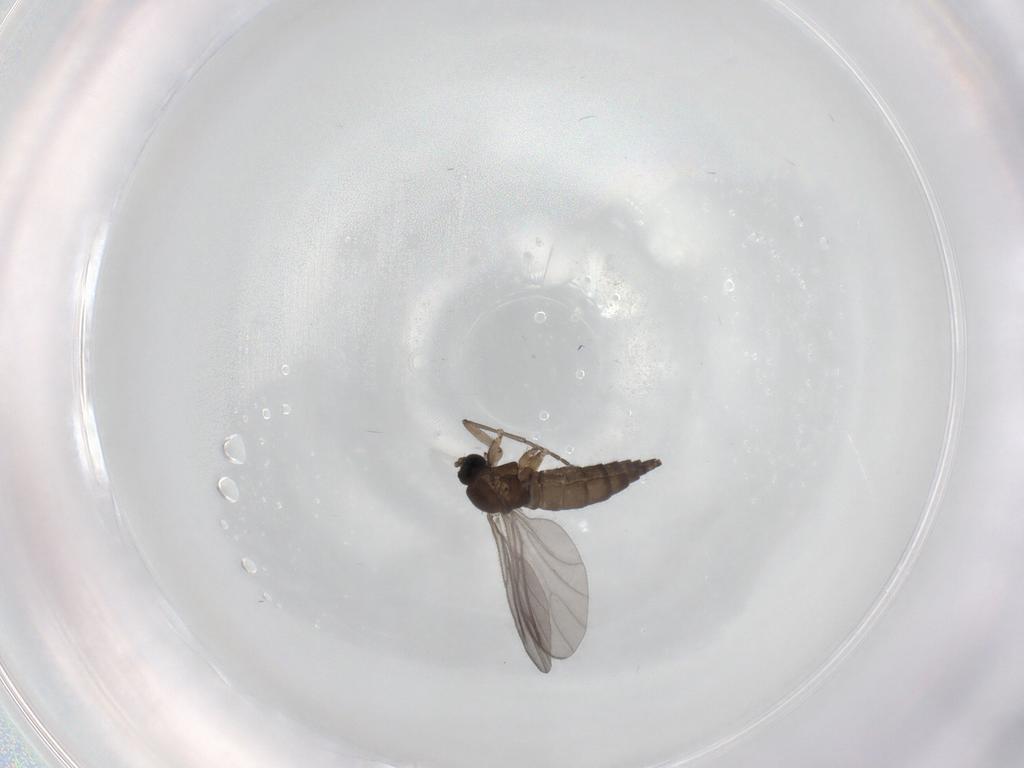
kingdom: Animalia
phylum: Arthropoda
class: Insecta
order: Diptera
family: Sciaridae
